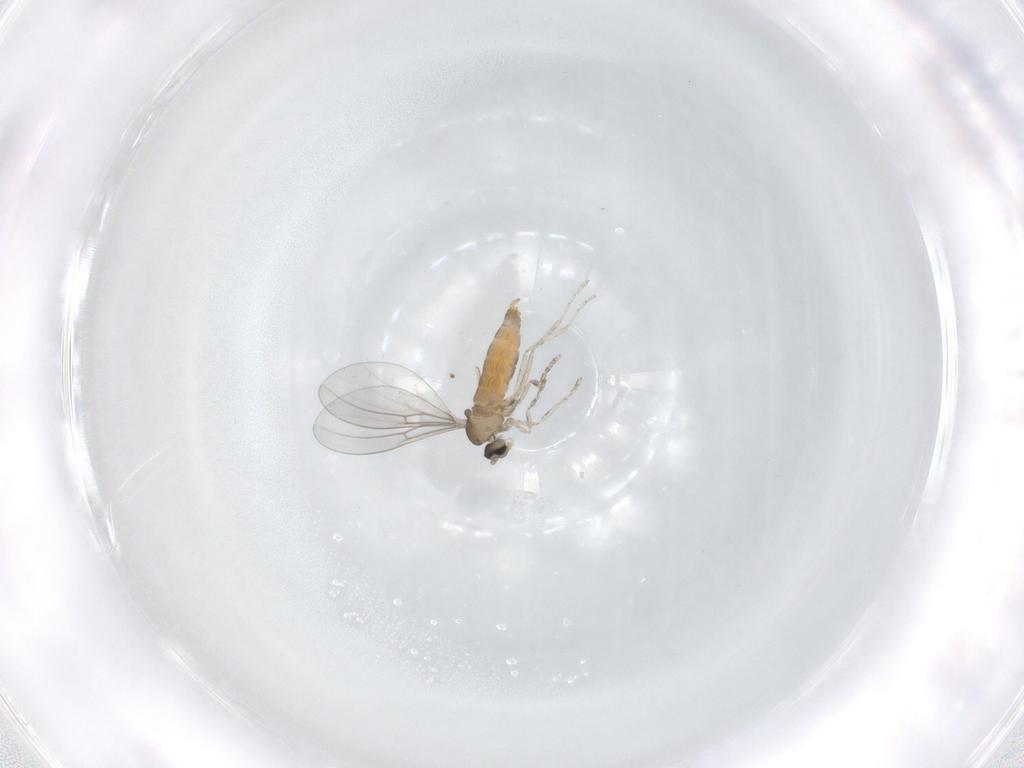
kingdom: Animalia
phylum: Arthropoda
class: Insecta
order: Diptera
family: Cecidomyiidae
